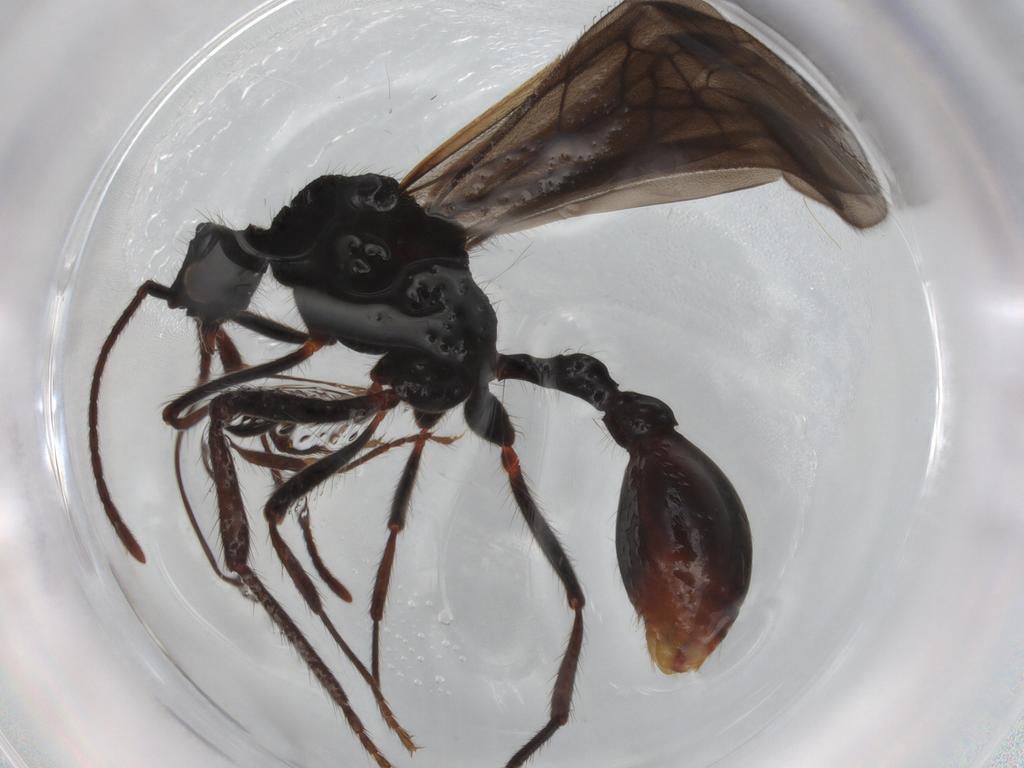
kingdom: Animalia
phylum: Arthropoda
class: Insecta
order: Hymenoptera
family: Formicidae
